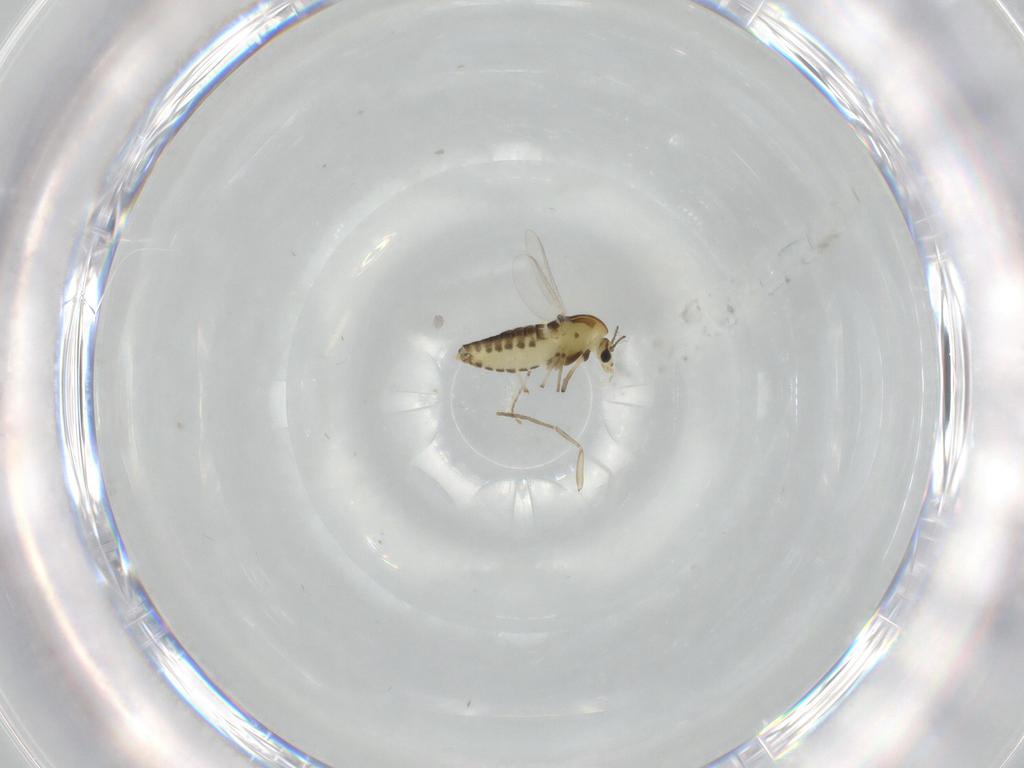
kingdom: Animalia
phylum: Arthropoda
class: Insecta
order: Diptera
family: Chironomidae
